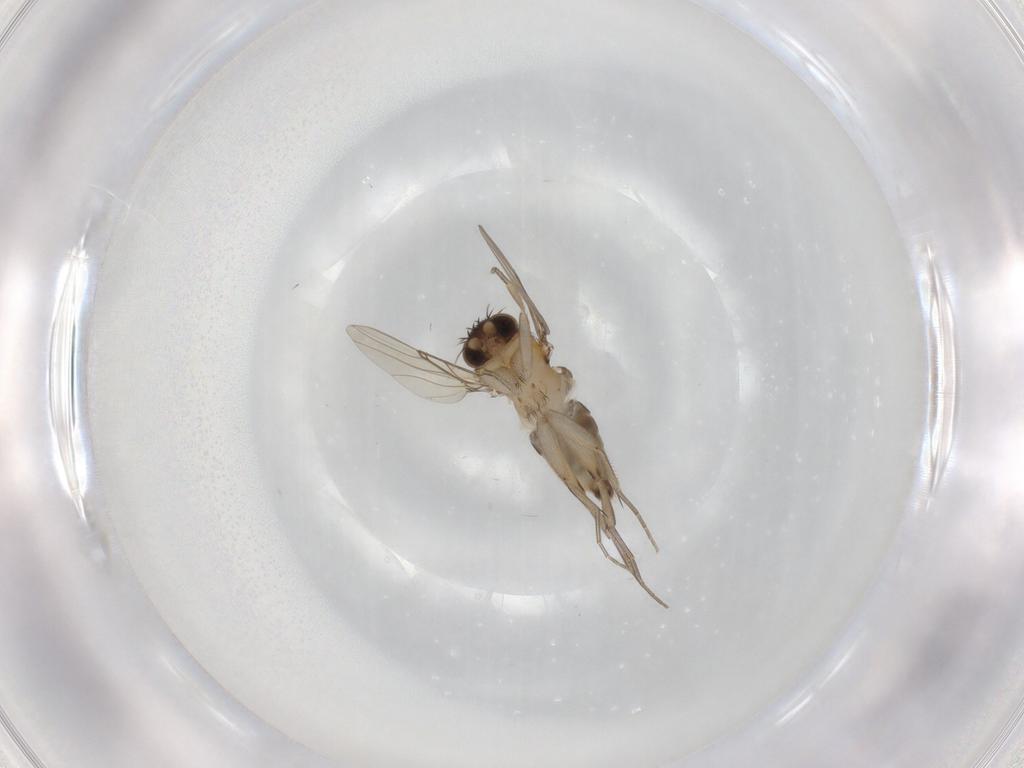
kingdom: Animalia
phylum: Arthropoda
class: Insecta
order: Diptera
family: Phoridae
